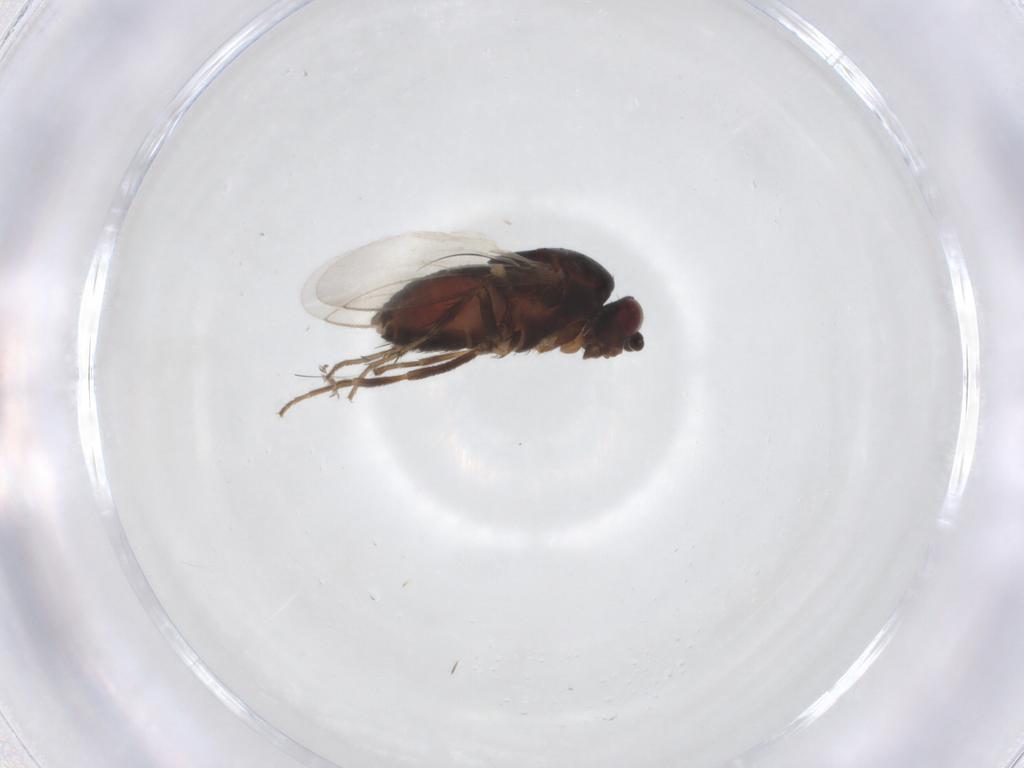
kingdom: Animalia
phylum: Arthropoda
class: Insecta
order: Diptera
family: Sphaeroceridae
